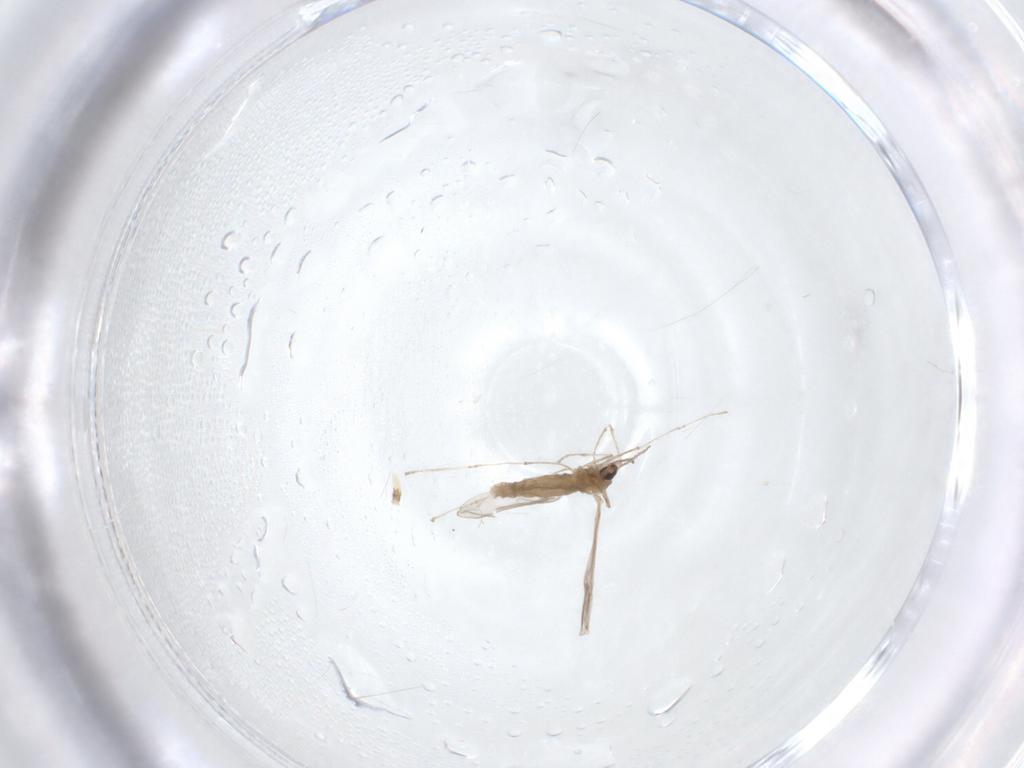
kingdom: Animalia
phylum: Arthropoda
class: Insecta
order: Diptera
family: Cecidomyiidae
